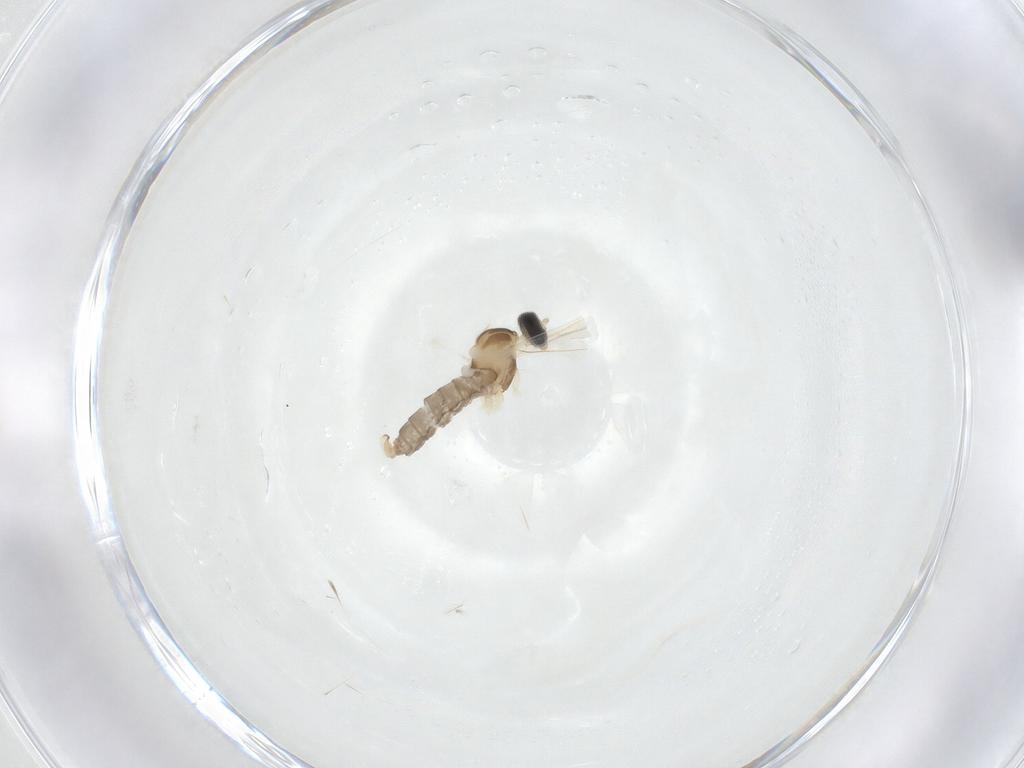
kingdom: Animalia
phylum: Arthropoda
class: Insecta
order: Diptera
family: Cecidomyiidae
